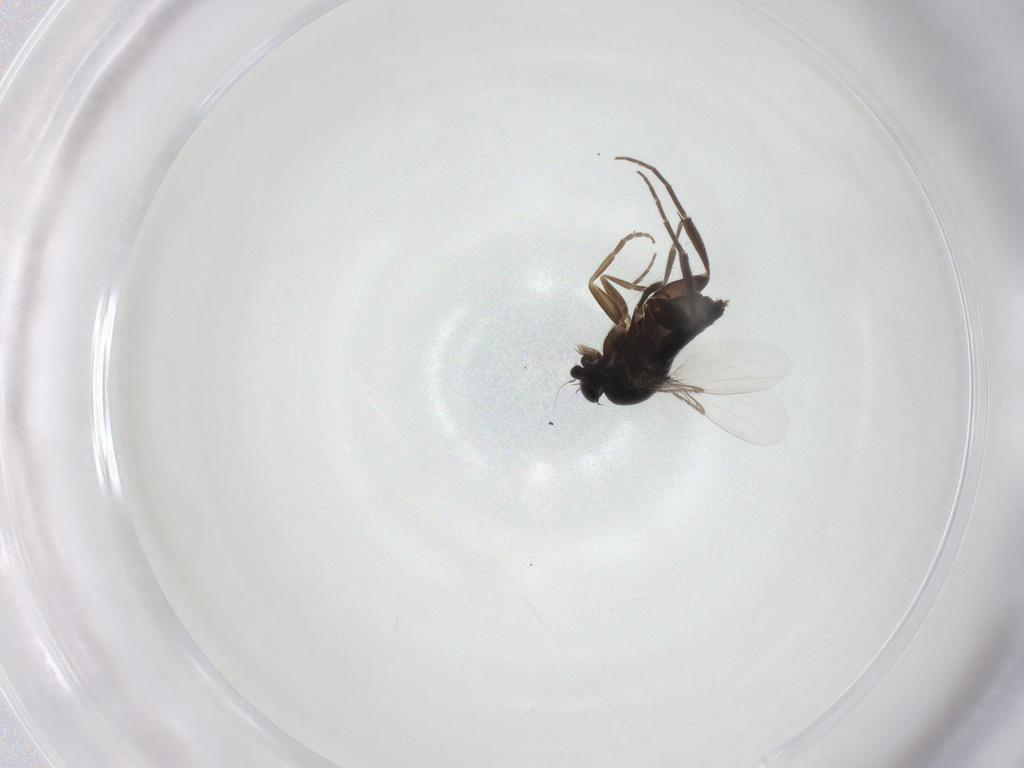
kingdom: Animalia
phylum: Arthropoda
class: Insecta
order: Diptera
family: Phoridae
